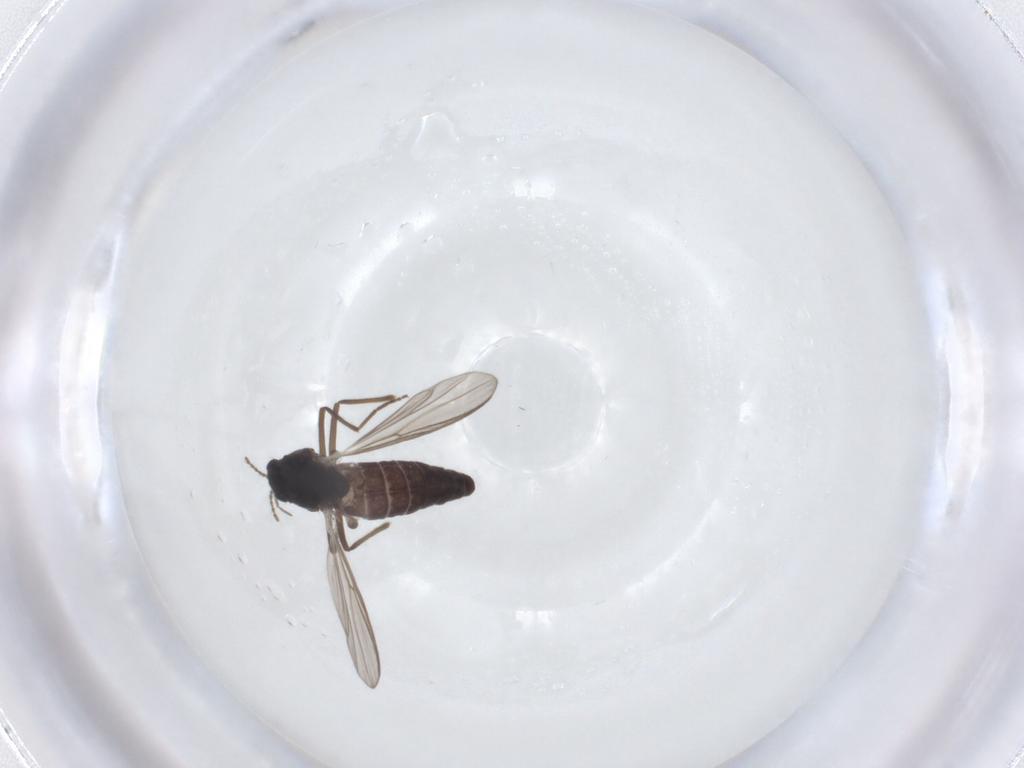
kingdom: Animalia
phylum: Arthropoda
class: Insecta
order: Diptera
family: Chironomidae
